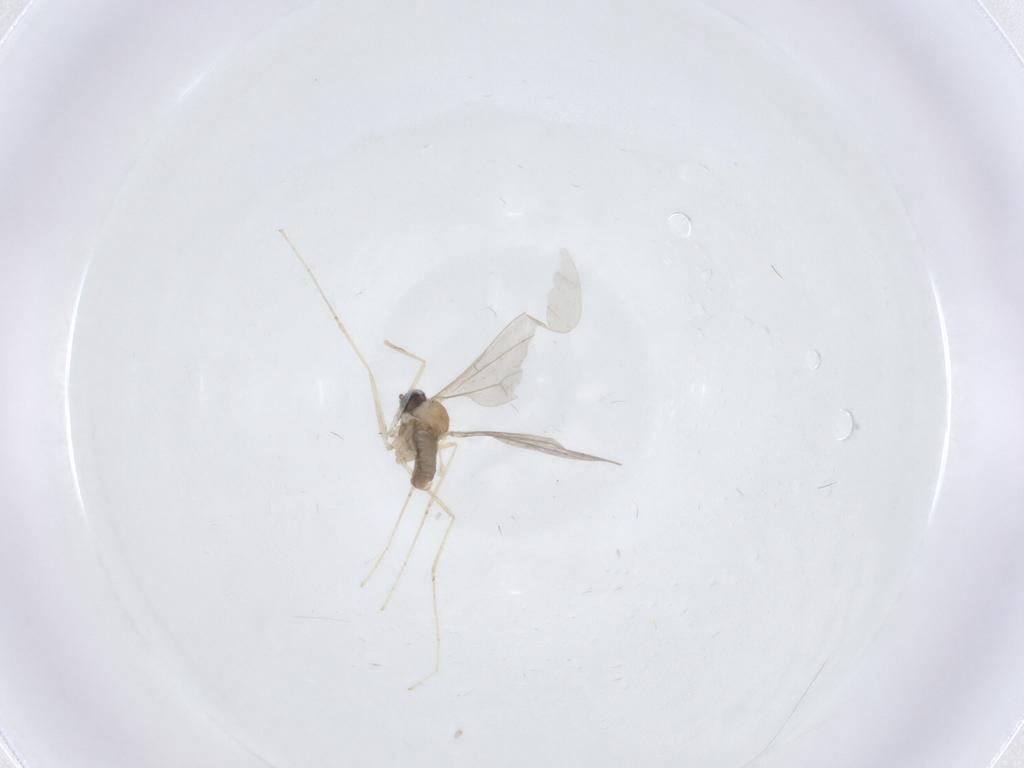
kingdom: Animalia
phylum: Arthropoda
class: Insecta
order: Diptera
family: Cecidomyiidae
